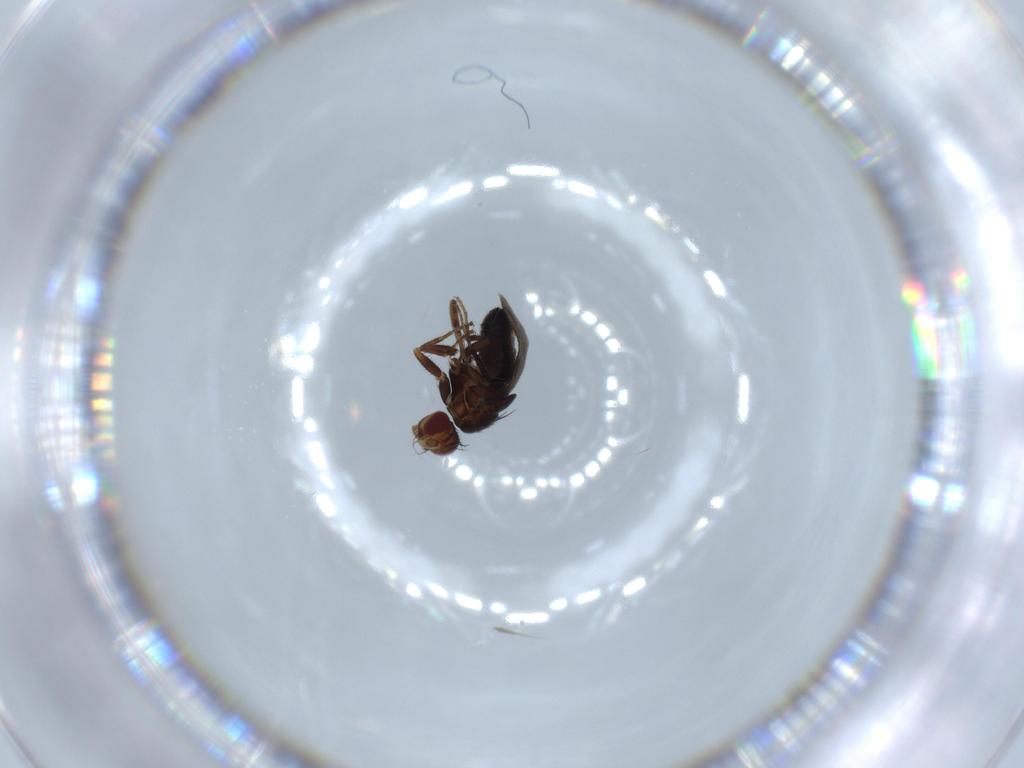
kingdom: Animalia
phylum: Arthropoda
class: Insecta
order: Diptera
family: Sphaeroceridae
